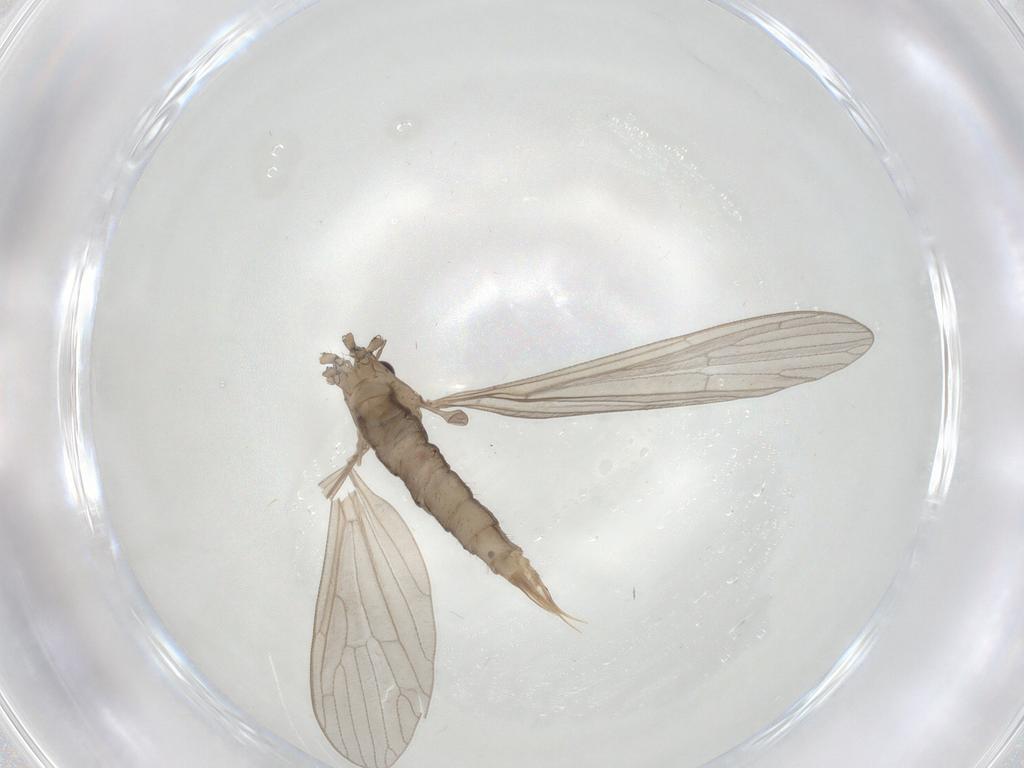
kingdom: Animalia
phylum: Arthropoda
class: Insecta
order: Diptera
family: Limoniidae
